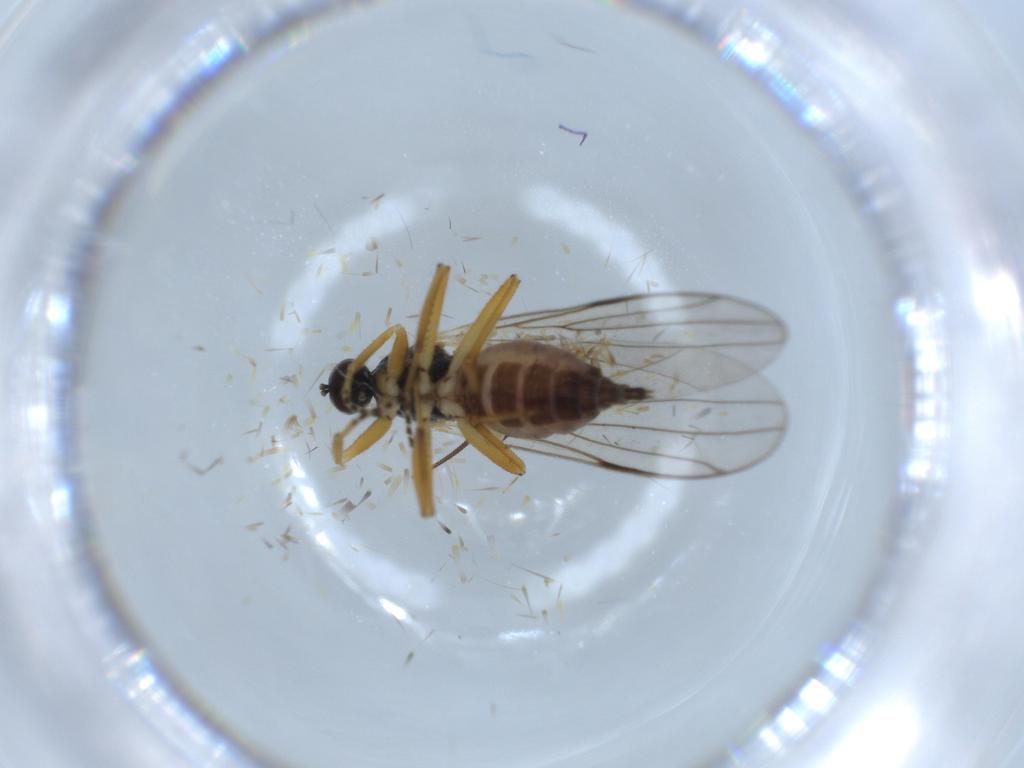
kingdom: Animalia
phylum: Arthropoda
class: Insecta
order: Diptera
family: Hybotidae
